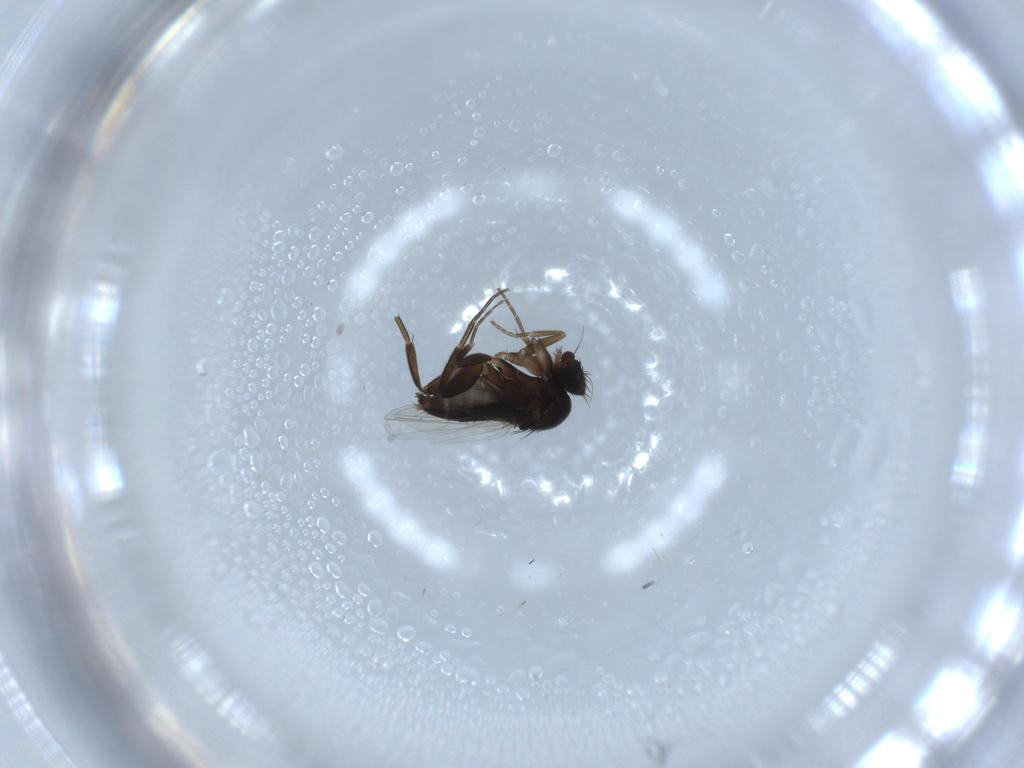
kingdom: Animalia
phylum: Arthropoda
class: Insecta
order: Diptera
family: Phoridae
